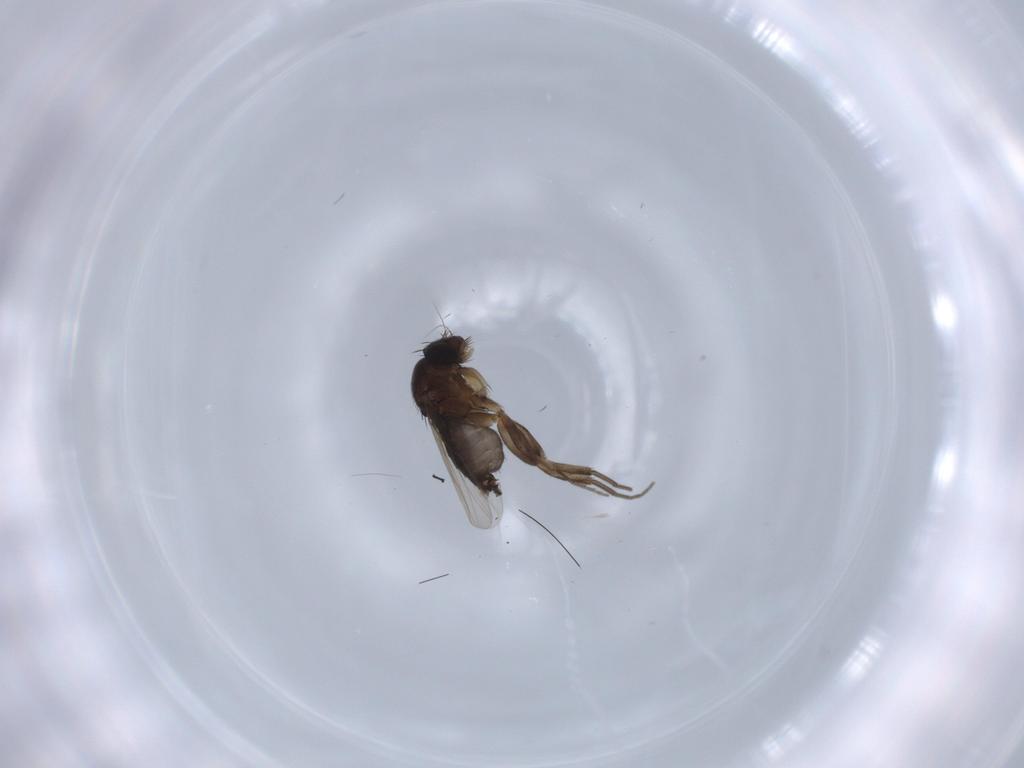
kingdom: Animalia
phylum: Arthropoda
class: Insecta
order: Diptera
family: Phoridae
